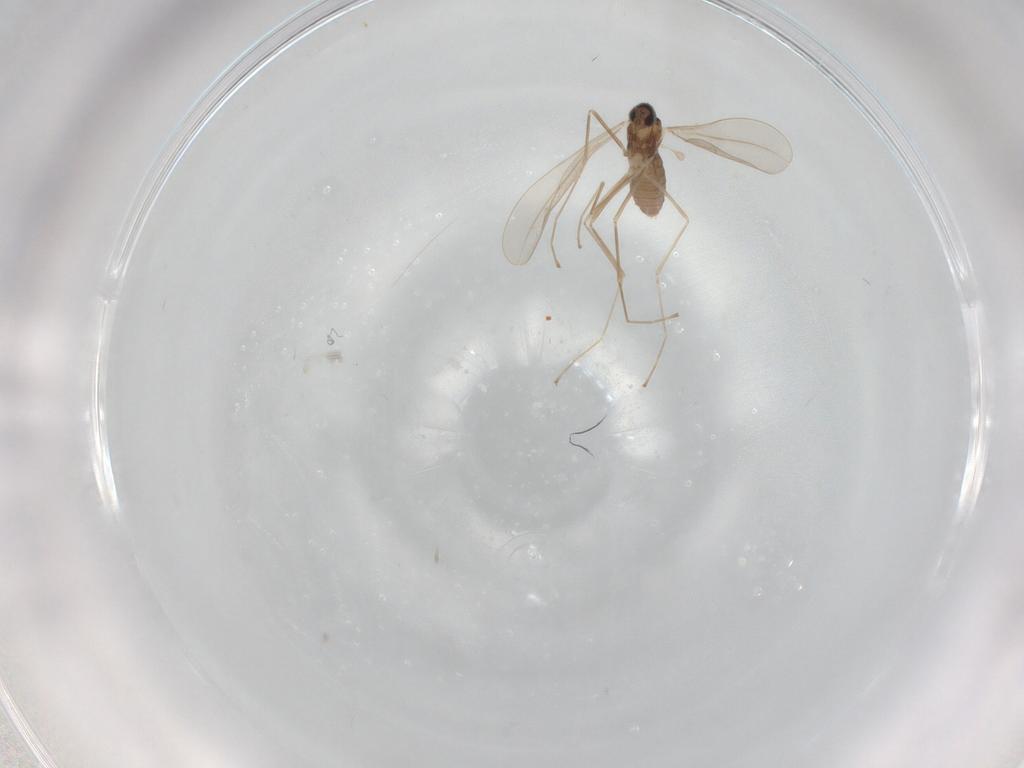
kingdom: Animalia
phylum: Arthropoda
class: Insecta
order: Diptera
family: Cecidomyiidae
